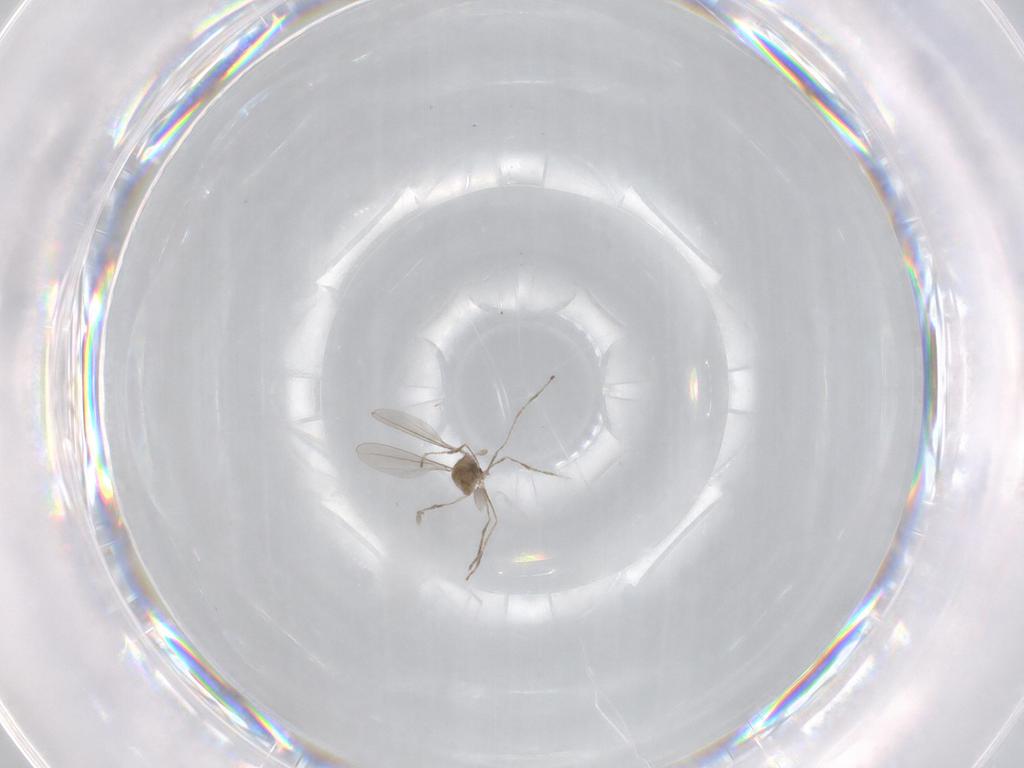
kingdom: Animalia
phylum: Arthropoda
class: Insecta
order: Diptera
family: Chironomidae
